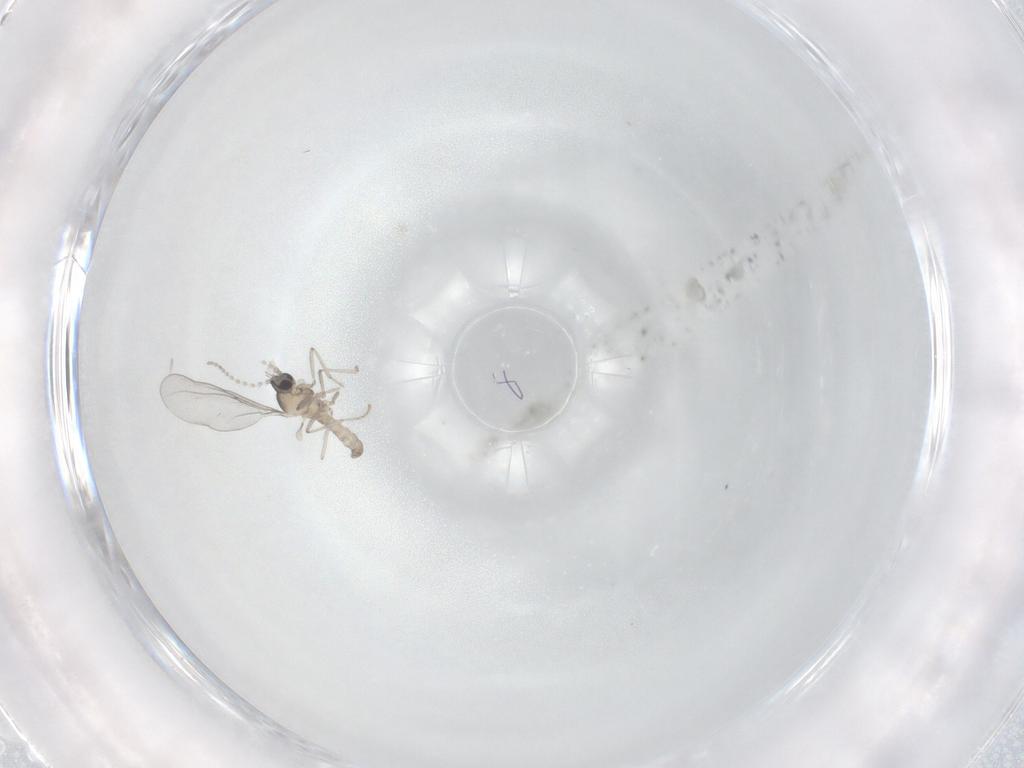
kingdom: Animalia
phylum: Arthropoda
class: Insecta
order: Diptera
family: Phoridae
